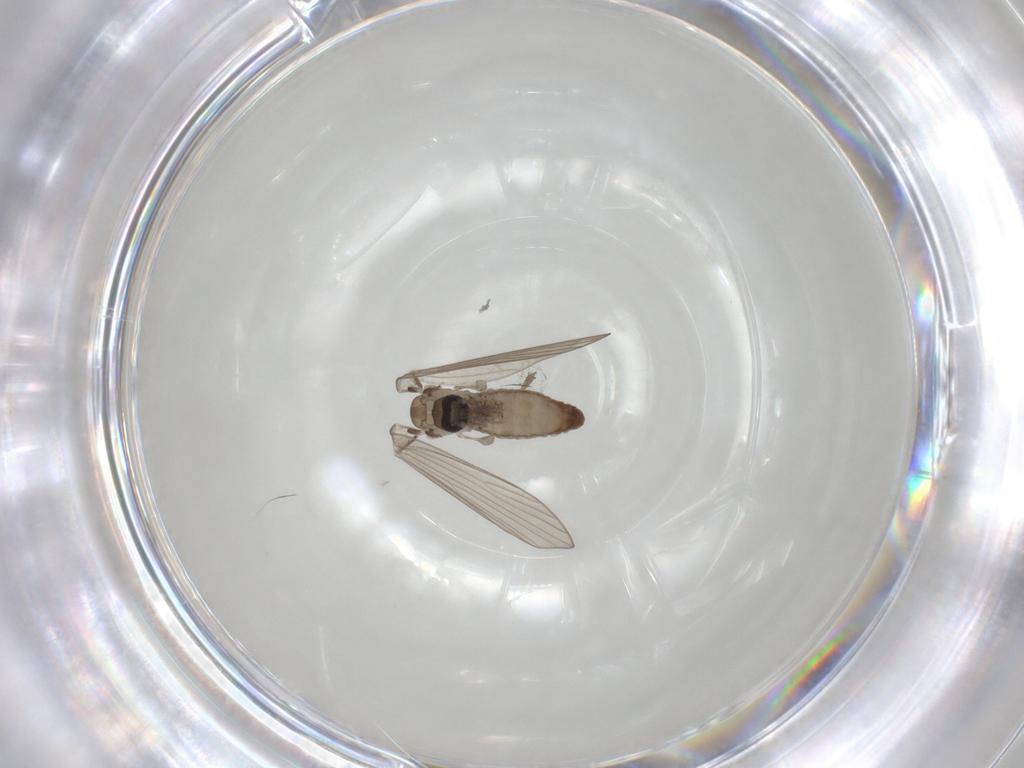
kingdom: Animalia
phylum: Arthropoda
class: Insecta
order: Diptera
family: Psychodidae
